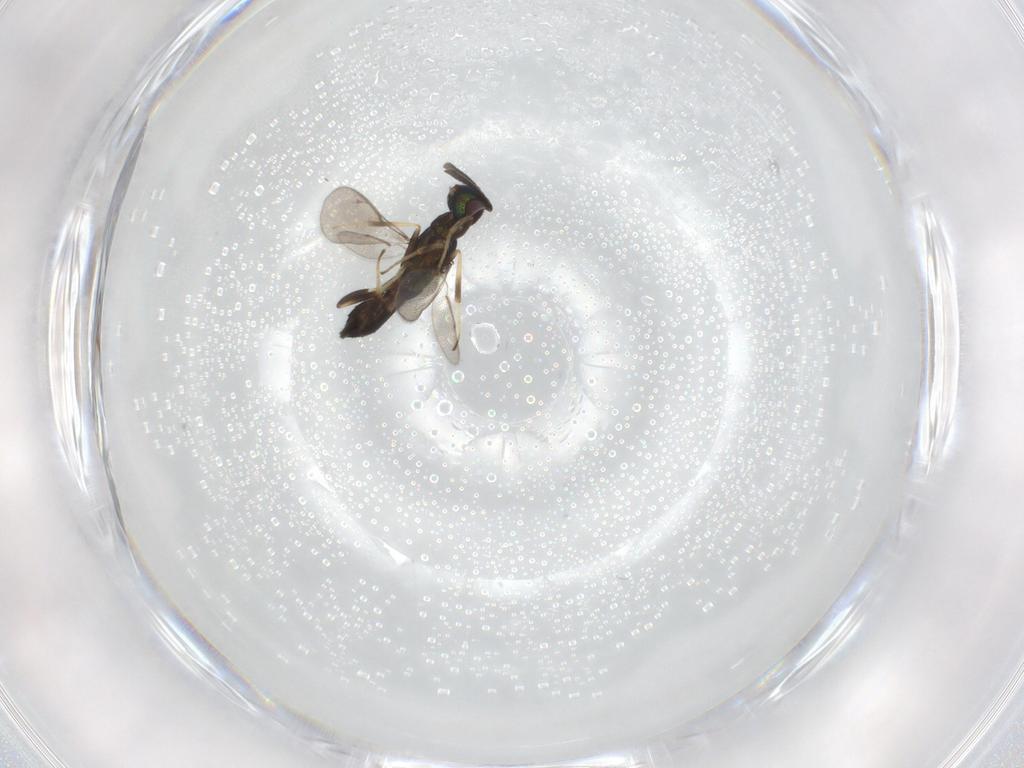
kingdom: Animalia
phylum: Arthropoda
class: Insecta
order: Hymenoptera
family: Eupelmidae
